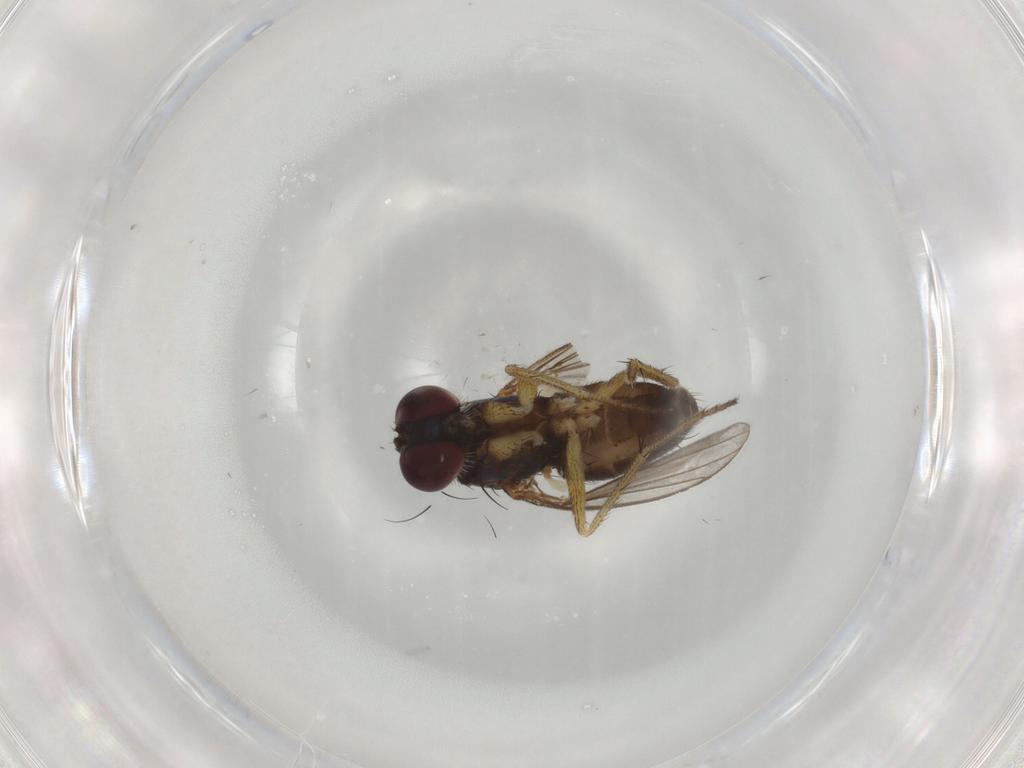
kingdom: Animalia
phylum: Arthropoda
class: Insecta
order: Diptera
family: Dolichopodidae
